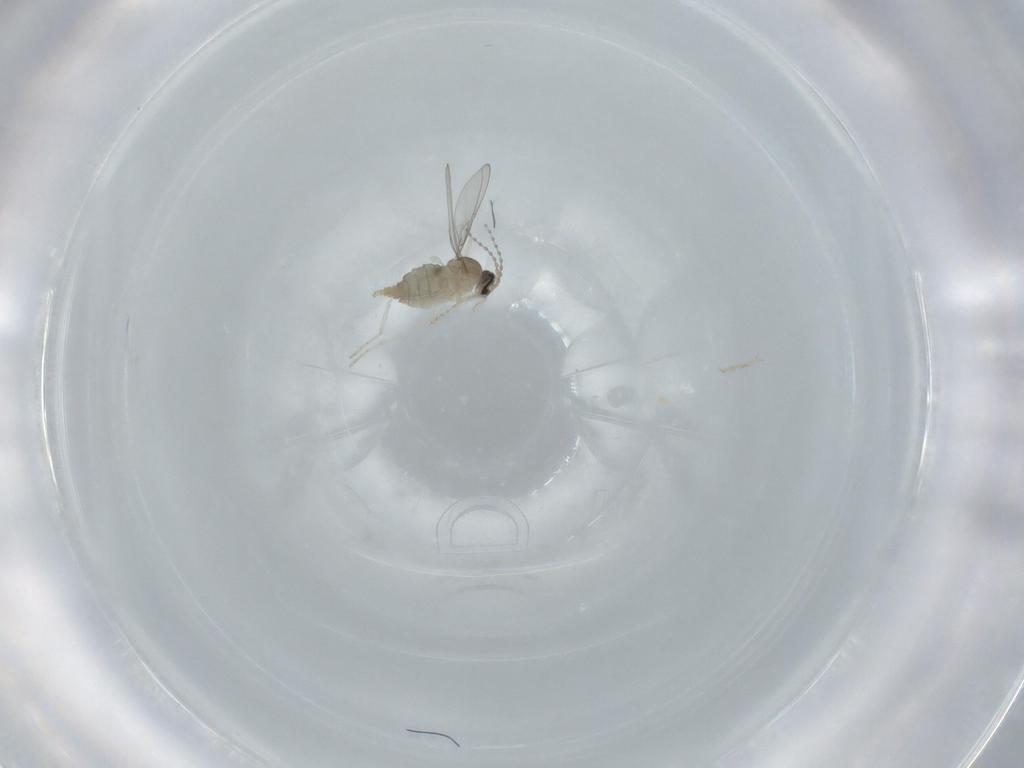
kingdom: Animalia
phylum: Arthropoda
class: Insecta
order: Diptera
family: Cecidomyiidae
